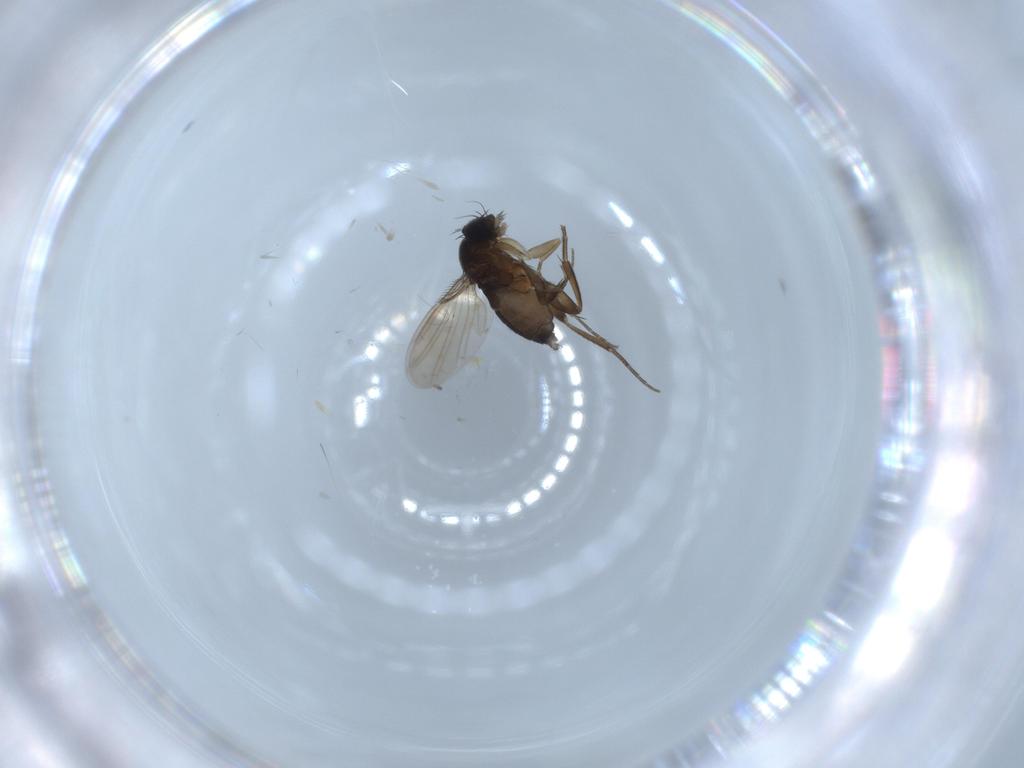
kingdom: Animalia
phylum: Arthropoda
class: Insecta
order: Diptera
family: Phoridae
